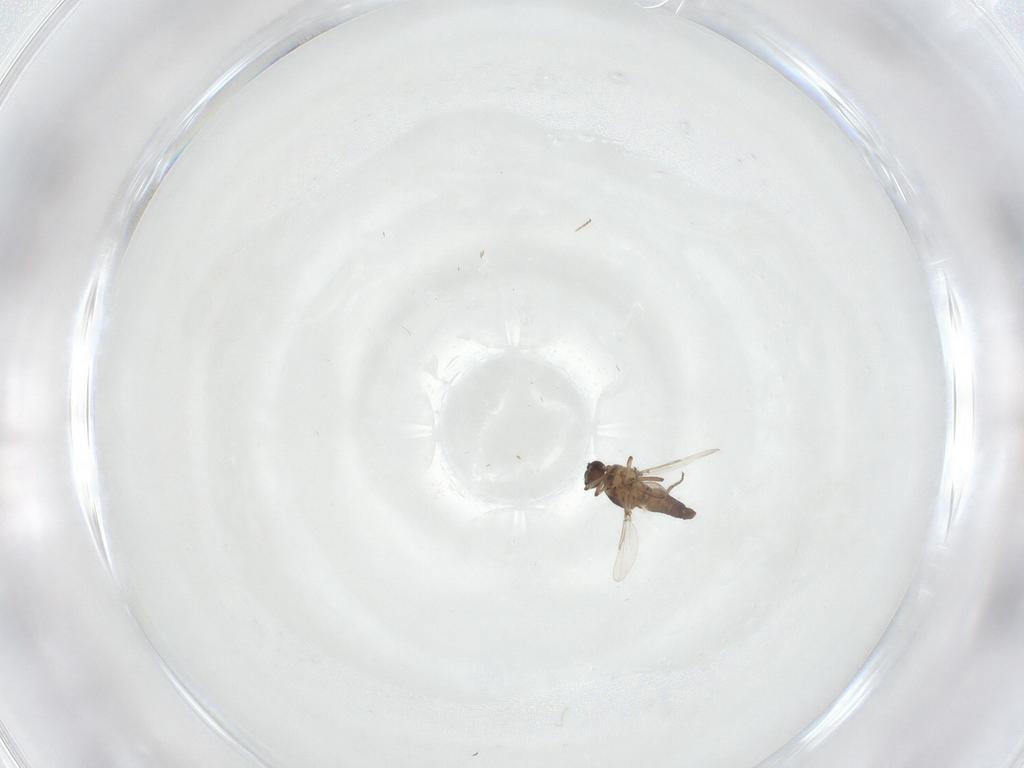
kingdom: Animalia
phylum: Arthropoda
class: Insecta
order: Diptera
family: Ceratopogonidae
